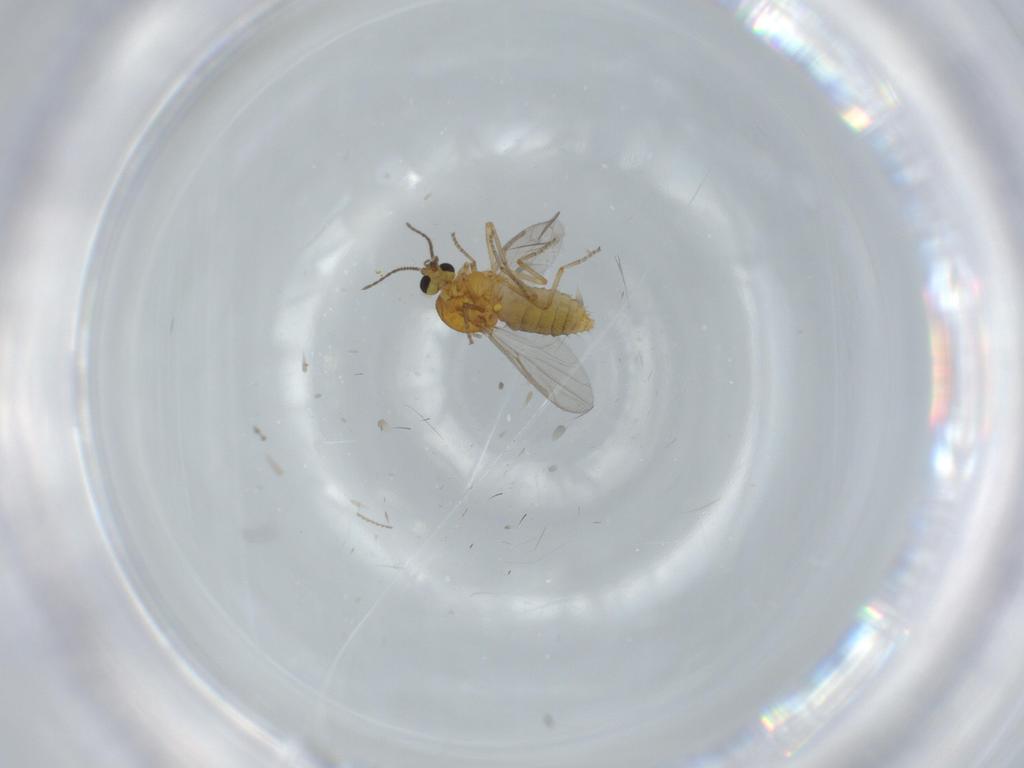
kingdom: Animalia
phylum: Arthropoda
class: Insecta
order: Diptera
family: Ceratopogonidae
